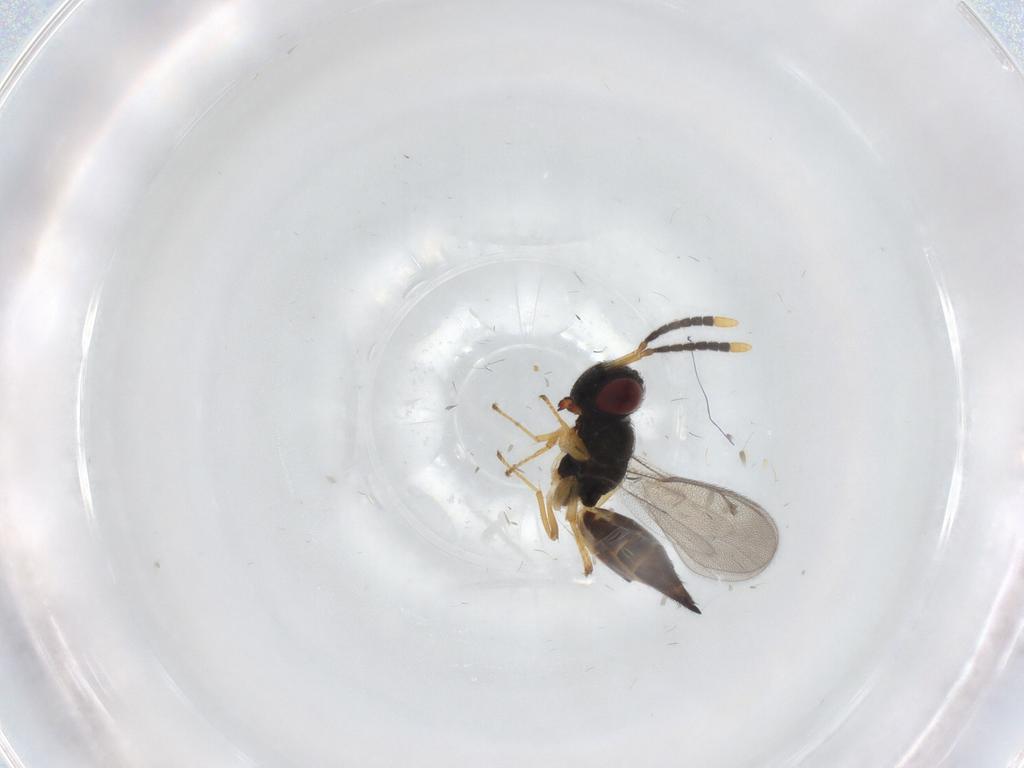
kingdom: Animalia
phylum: Arthropoda
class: Insecta
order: Hymenoptera
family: Pteromalidae
